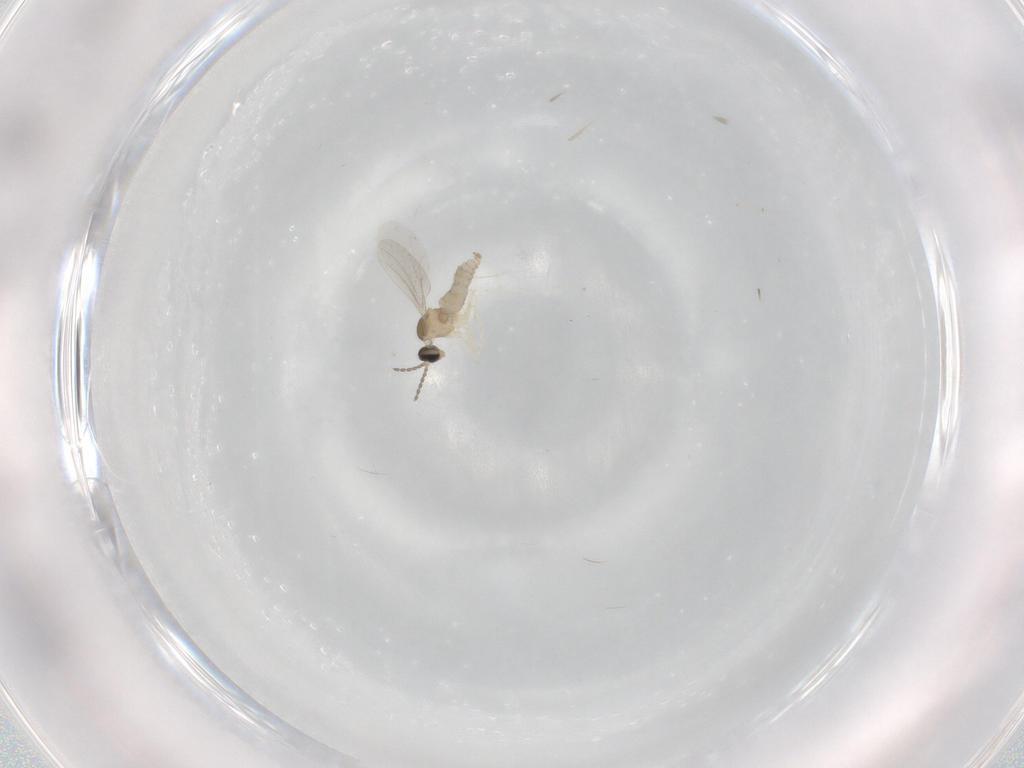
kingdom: Animalia
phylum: Arthropoda
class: Insecta
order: Diptera
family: Cecidomyiidae
